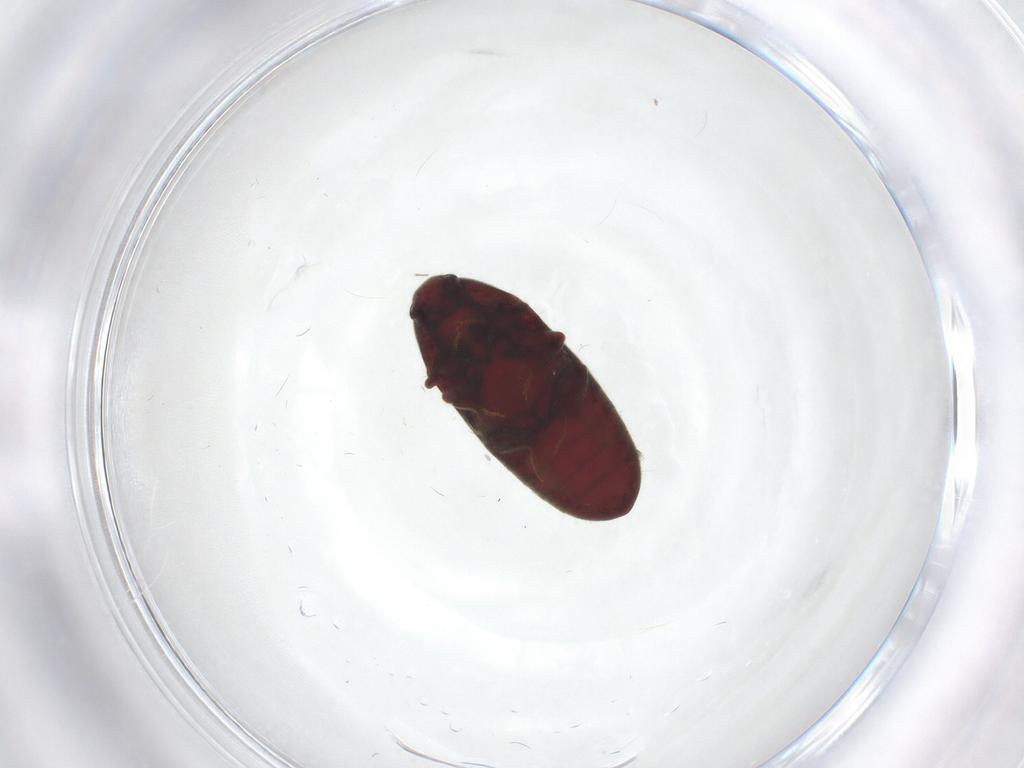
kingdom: Animalia
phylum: Arthropoda
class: Insecta
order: Coleoptera
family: Throscidae
